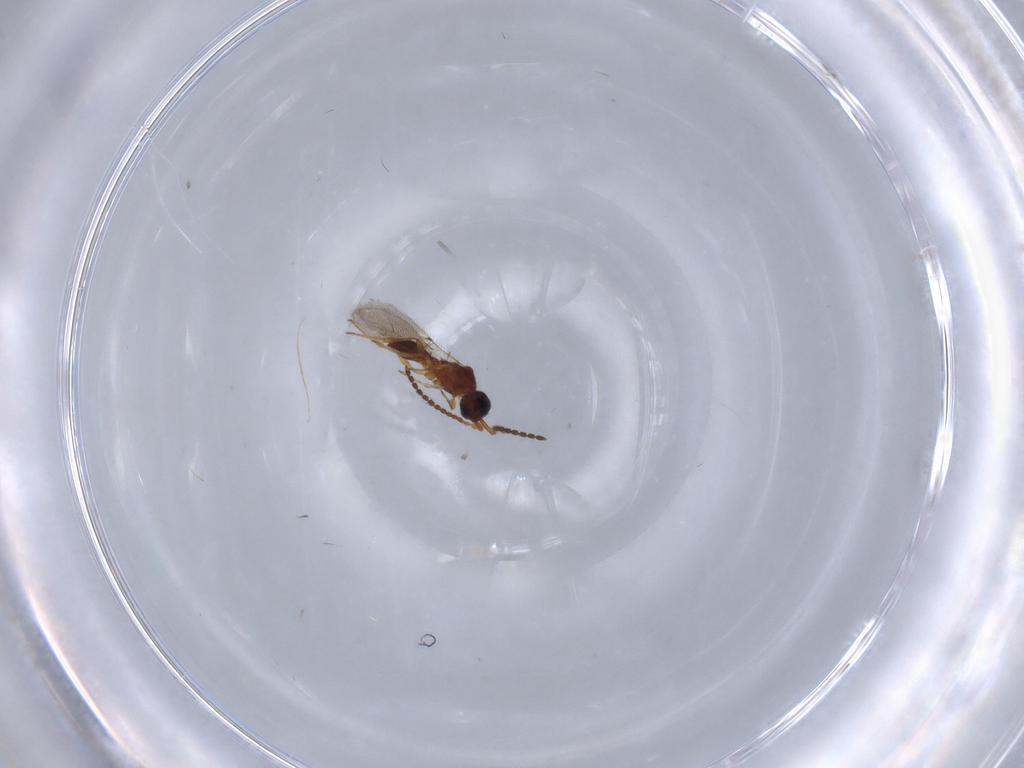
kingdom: Animalia
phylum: Arthropoda
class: Insecta
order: Hymenoptera
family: Diapriidae
